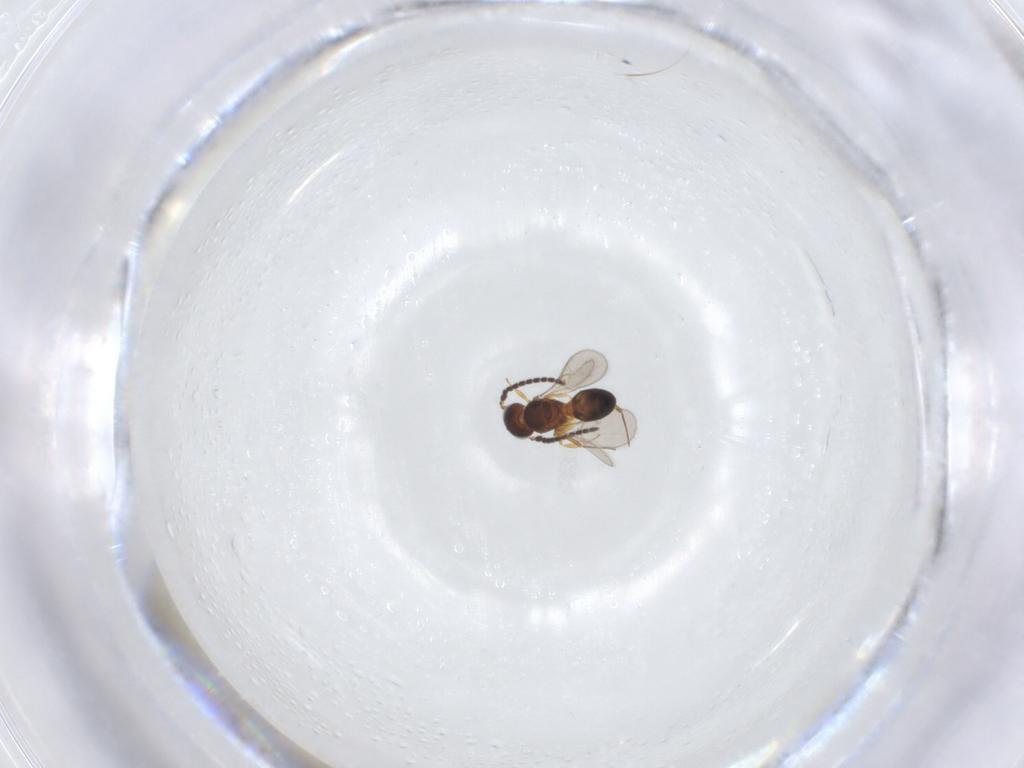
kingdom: Animalia
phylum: Arthropoda
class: Insecta
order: Hymenoptera
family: Scelionidae
